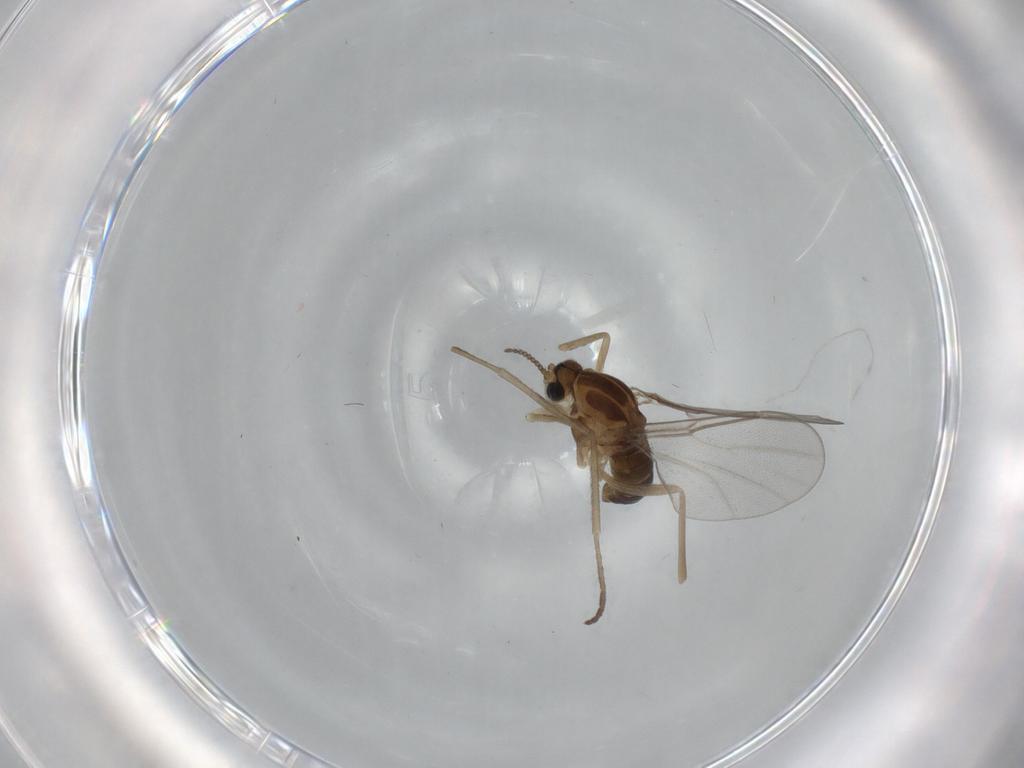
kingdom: Animalia
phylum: Arthropoda
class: Insecta
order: Diptera
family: Cecidomyiidae
